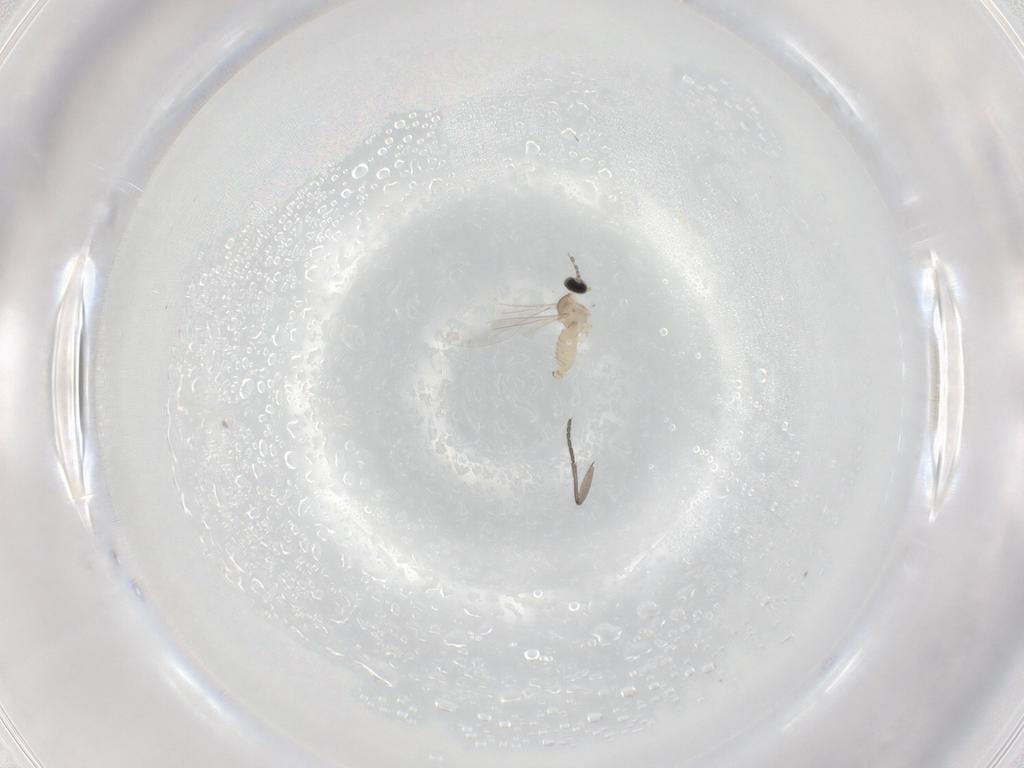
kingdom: Animalia
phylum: Arthropoda
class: Insecta
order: Diptera
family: Cecidomyiidae
